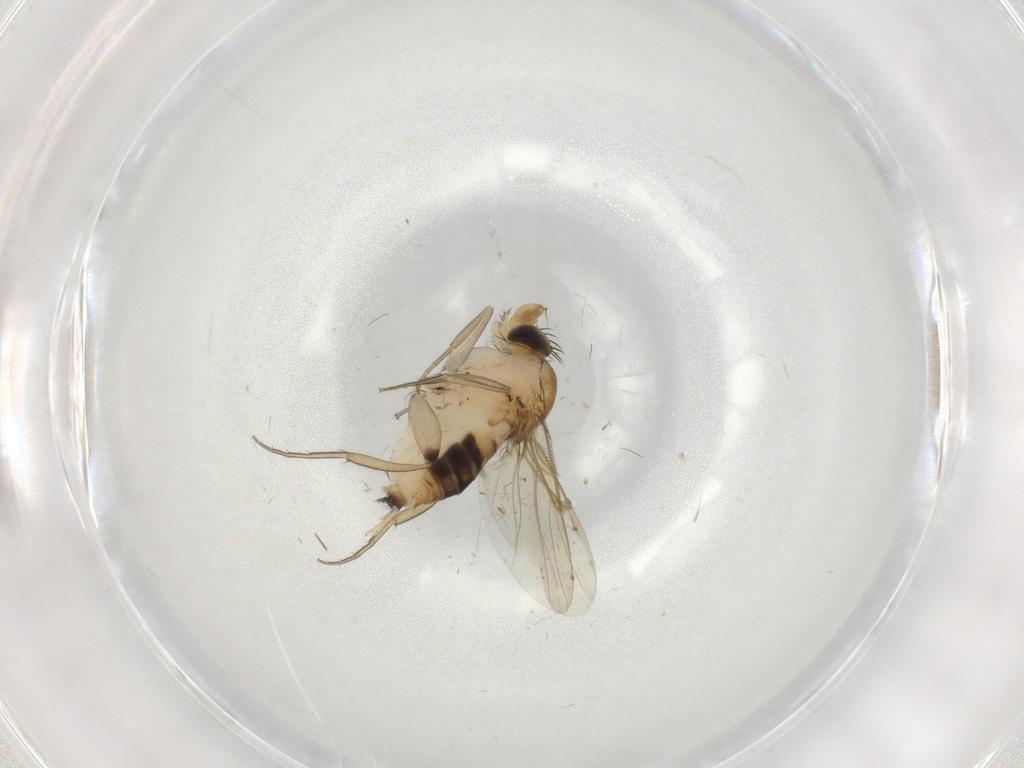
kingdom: Animalia
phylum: Arthropoda
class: Insecta
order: Diptera
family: Phoridae
